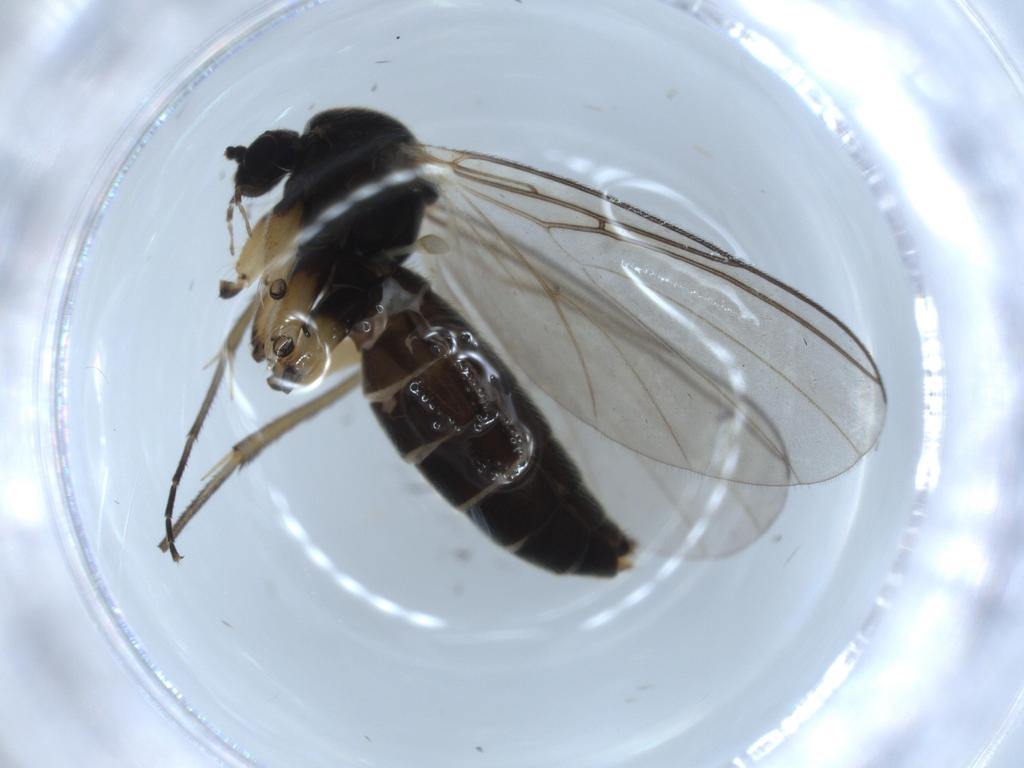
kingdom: Animalia
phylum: Arthropoda
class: Insecta
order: Diptera
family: Mycetophilidae
